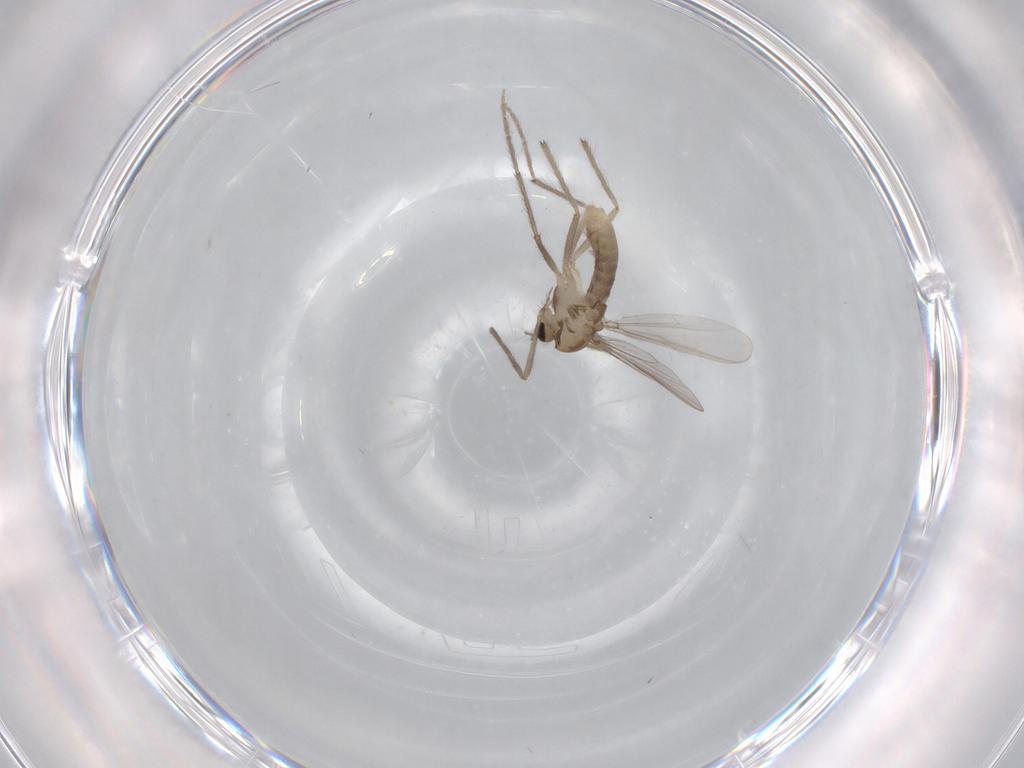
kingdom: Animalia
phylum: Arthropoda
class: Insecta
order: Diptera
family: Chironomidae
